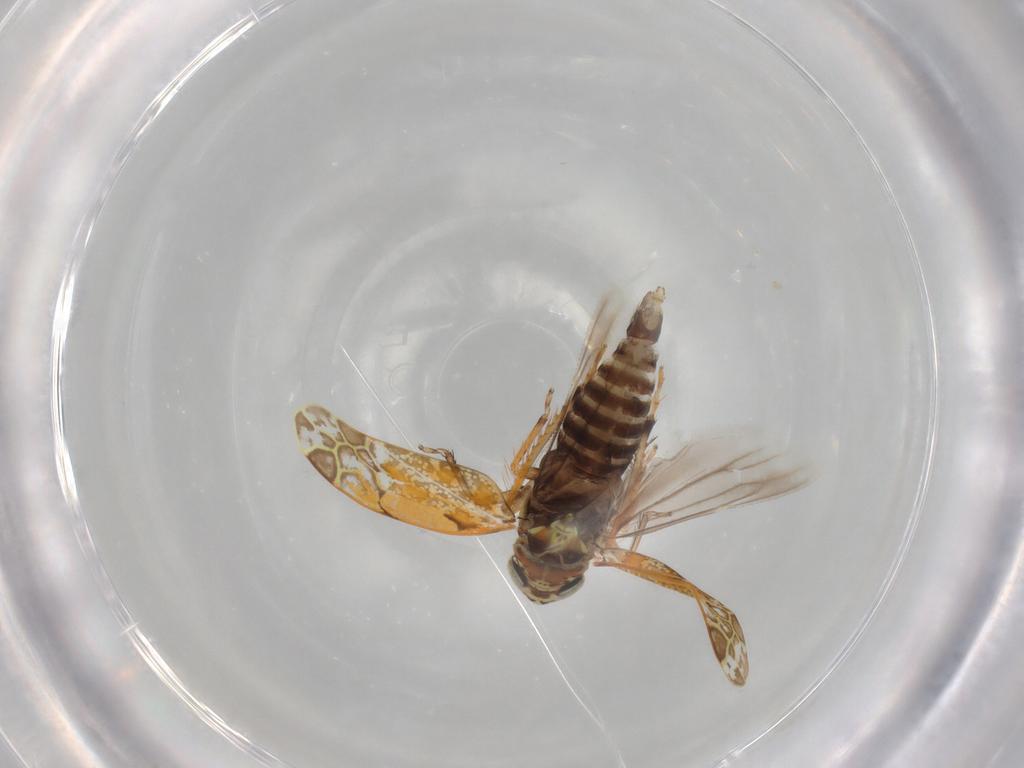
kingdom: Animalia
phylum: Arthropoda
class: Insecta
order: Hemiptera
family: Cicadellidae
